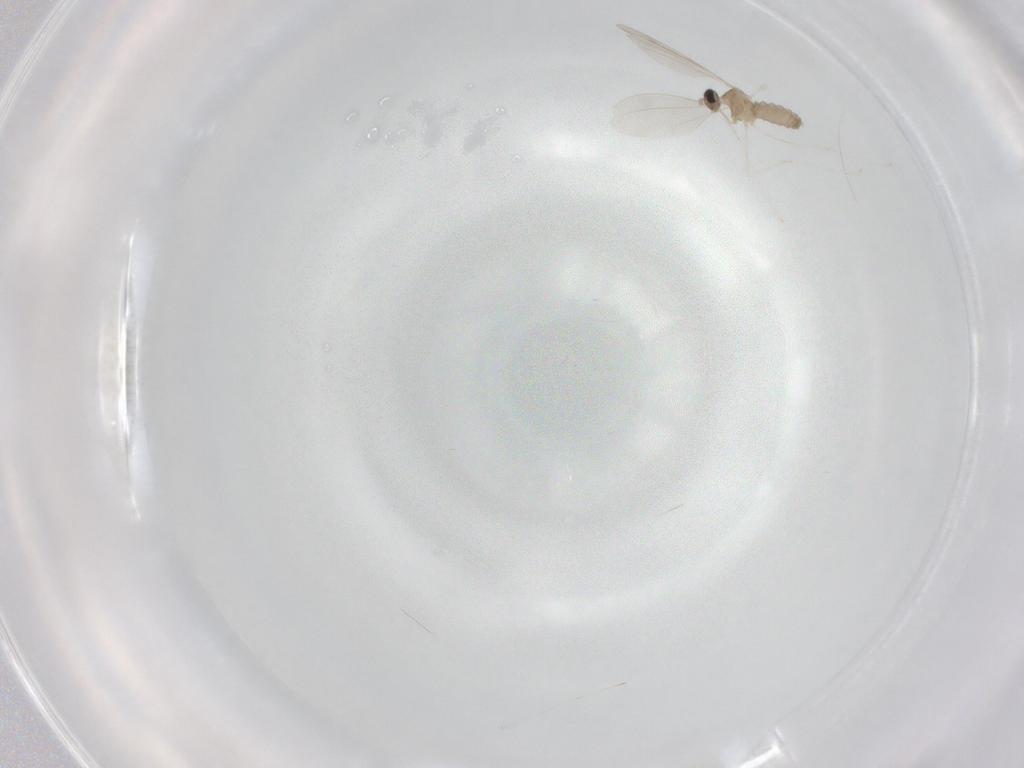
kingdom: Animalia
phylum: Arthropoda
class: Insecta
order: Diptera
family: Cecidomyiidae
